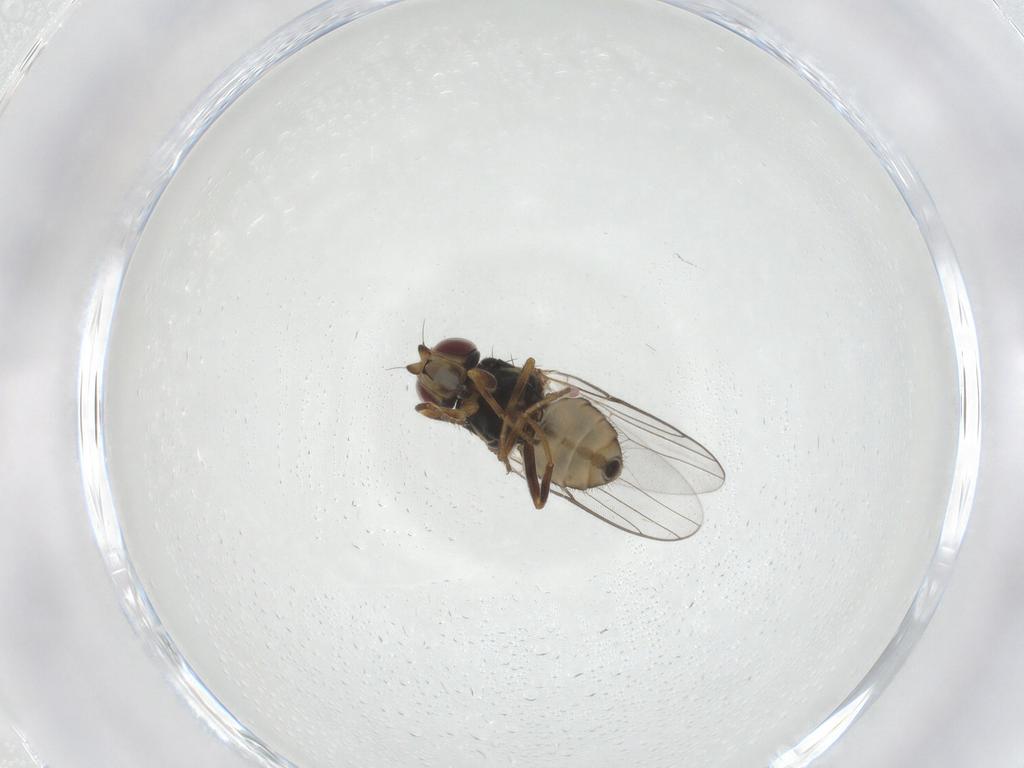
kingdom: Animalia
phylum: Arthropoda
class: Insecta
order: Diptera
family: Chloropidae
